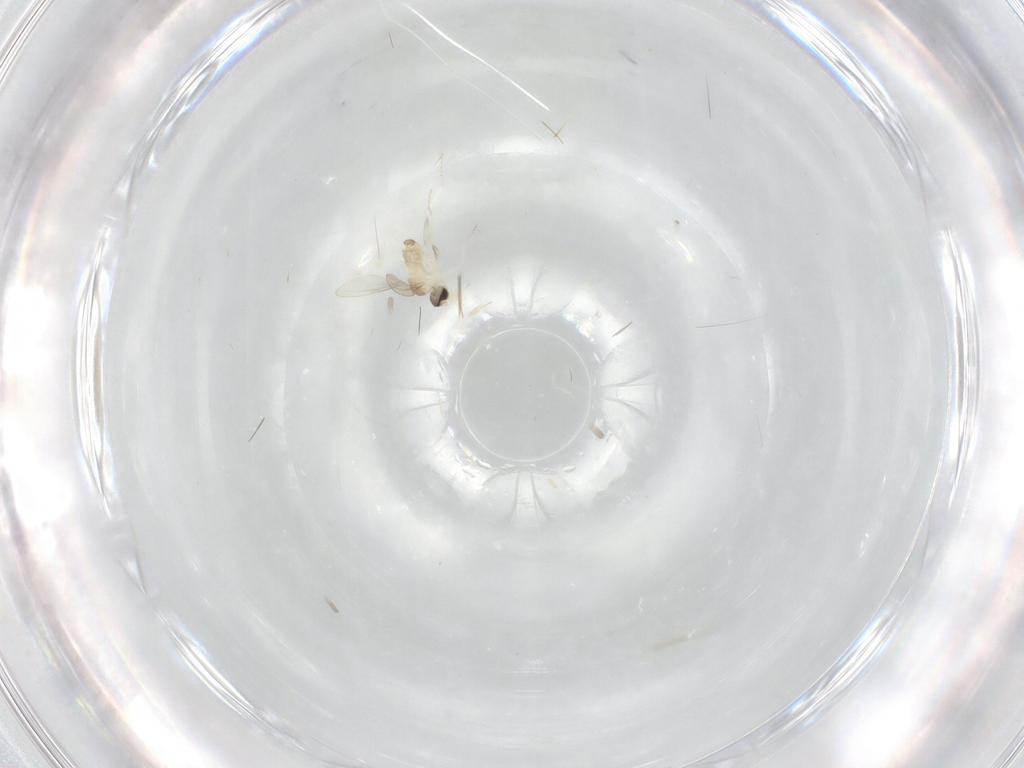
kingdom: Animalia
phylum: Arthropoda
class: Insecta
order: Diptera
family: Cecidomyiidae
